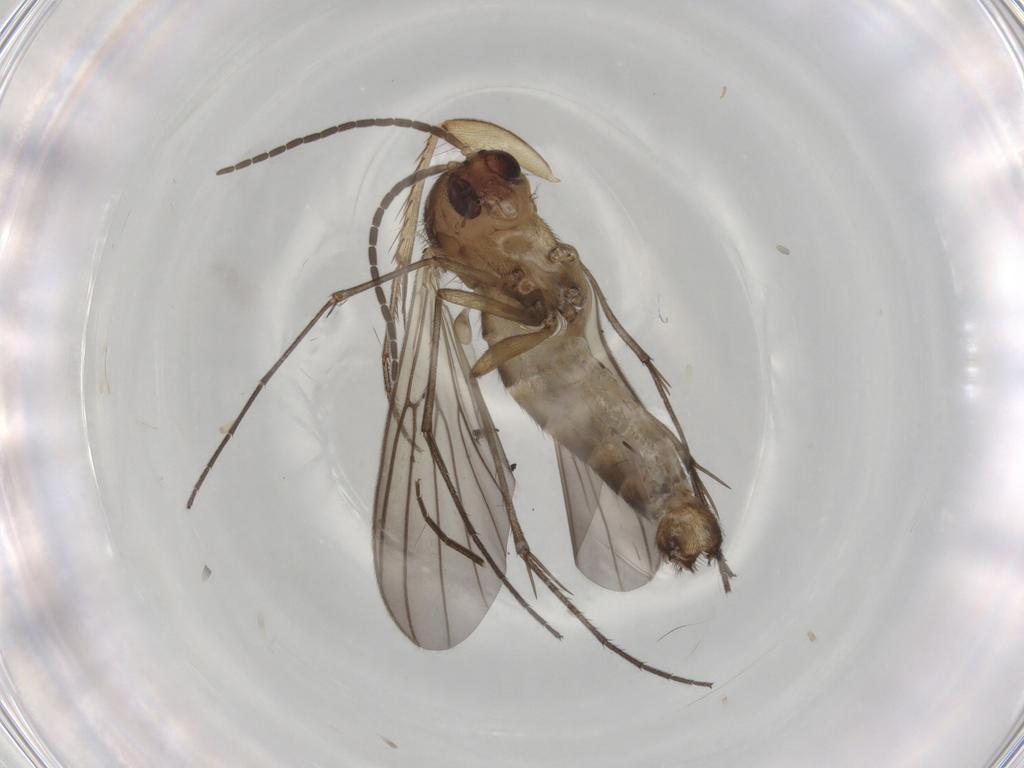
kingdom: Animalia
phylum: Arthropoda
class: Insecta
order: Diptera
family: Mycetophilidae
